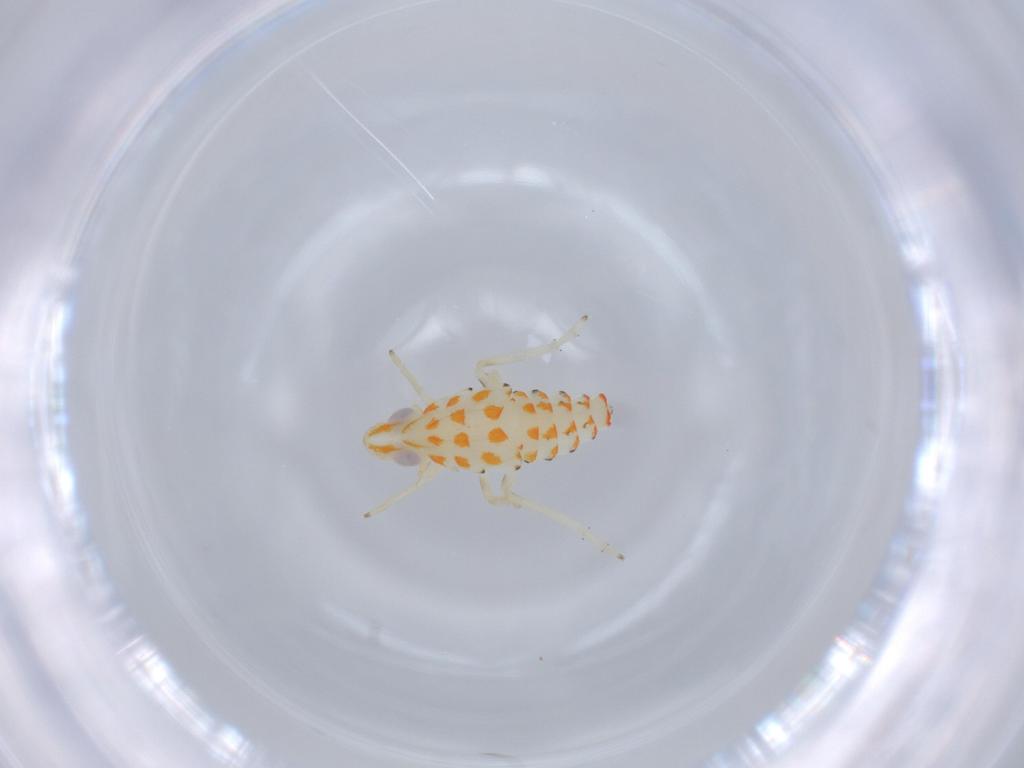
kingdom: Animalia
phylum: Arthropoda
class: Insecta
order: Hemiptera
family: Tropiduchidae
